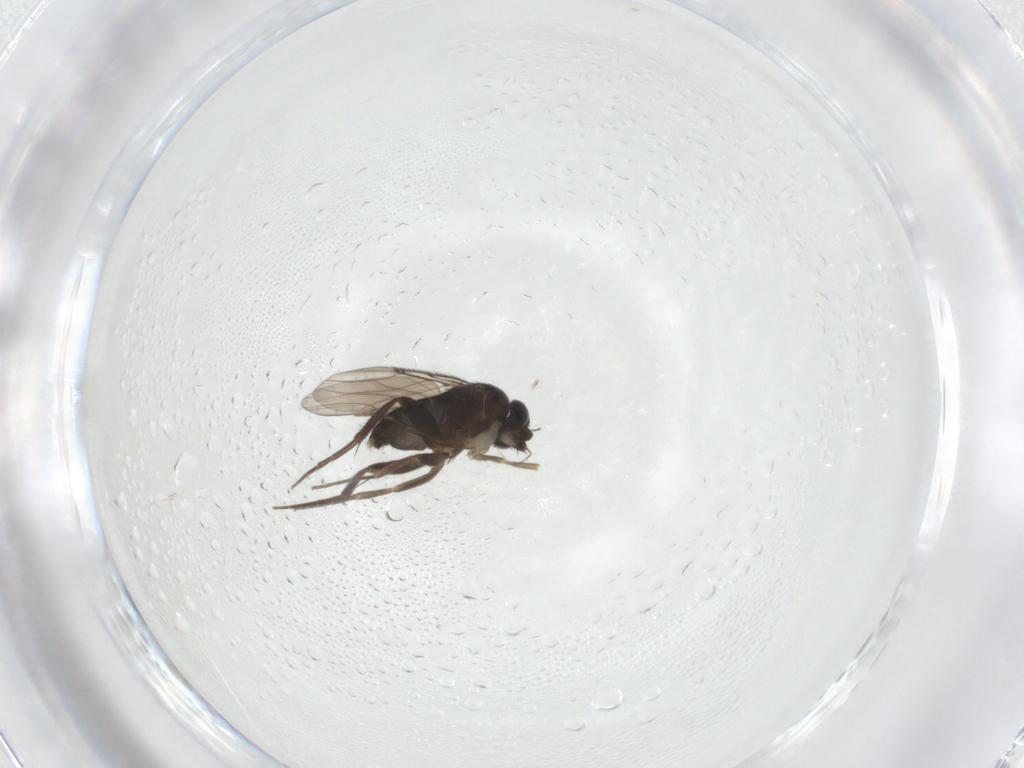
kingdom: Animalia
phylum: Arthropoda
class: Insecta
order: Diptera
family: Phoridae
